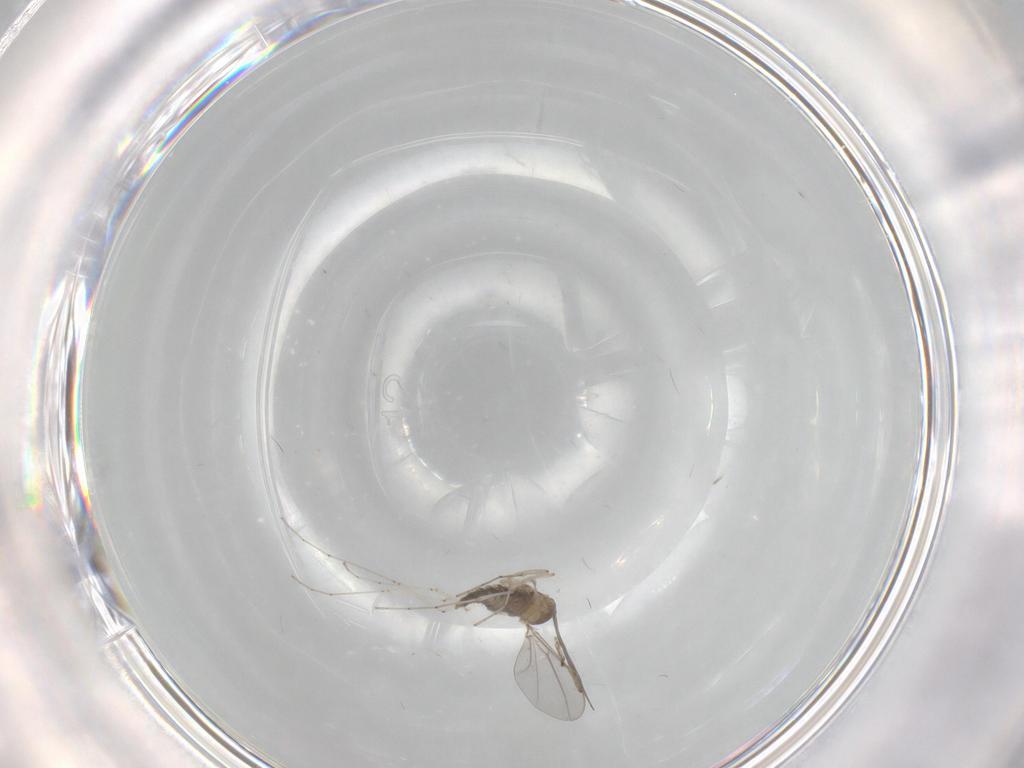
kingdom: Animalia
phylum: Arthropoda
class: Insecta
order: Diptera
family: Cecidomyiidae
